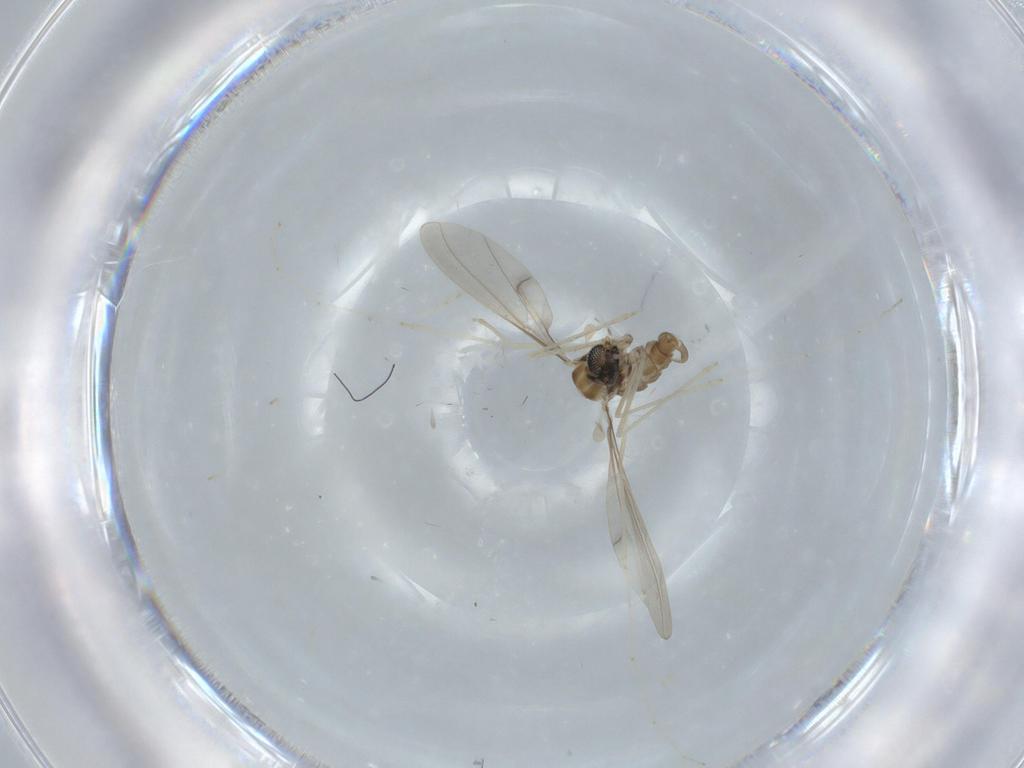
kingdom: Animalia
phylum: Arthropoda
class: Insecta
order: Diptera
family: Cecidomyiidae
